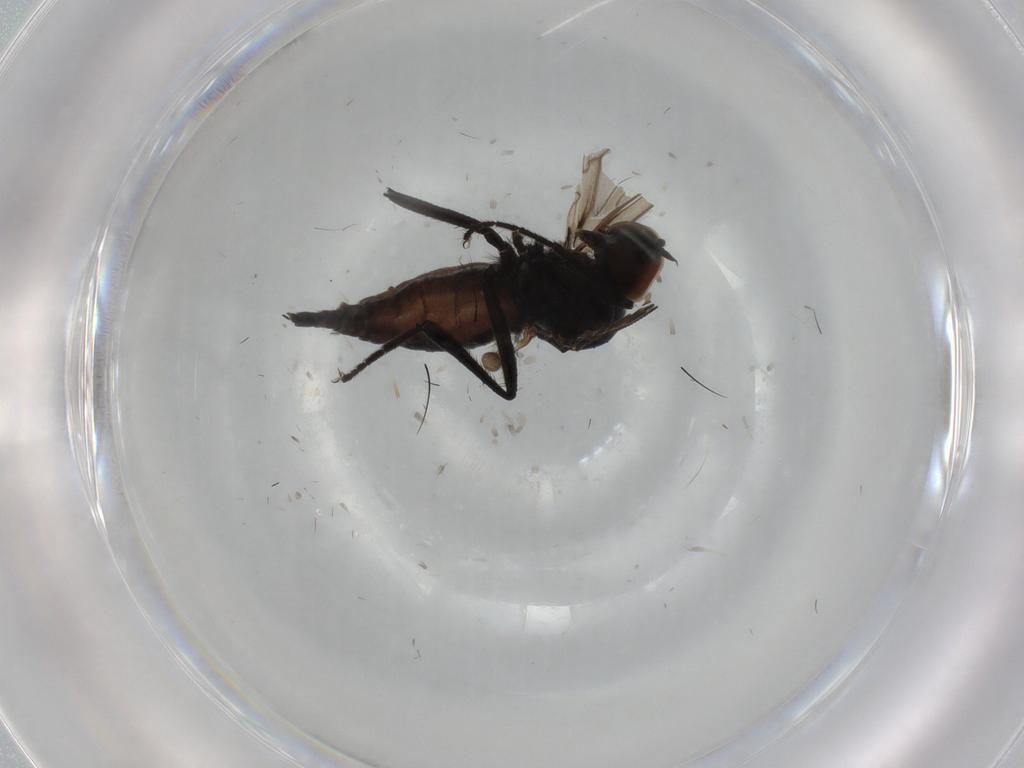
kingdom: Animalia
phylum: Arthropoda
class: Insecta
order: Diptera
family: Hybotidae
